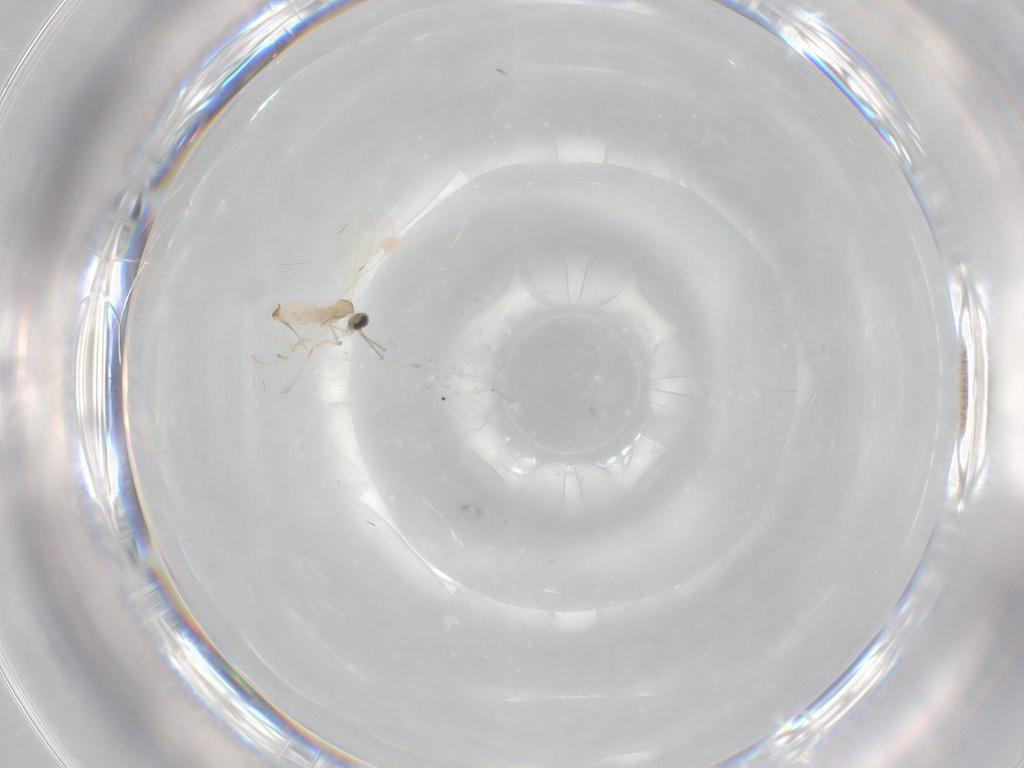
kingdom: Animalia
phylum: Arthropoda
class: Insecta
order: Diptera
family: Cecidomyiidae
